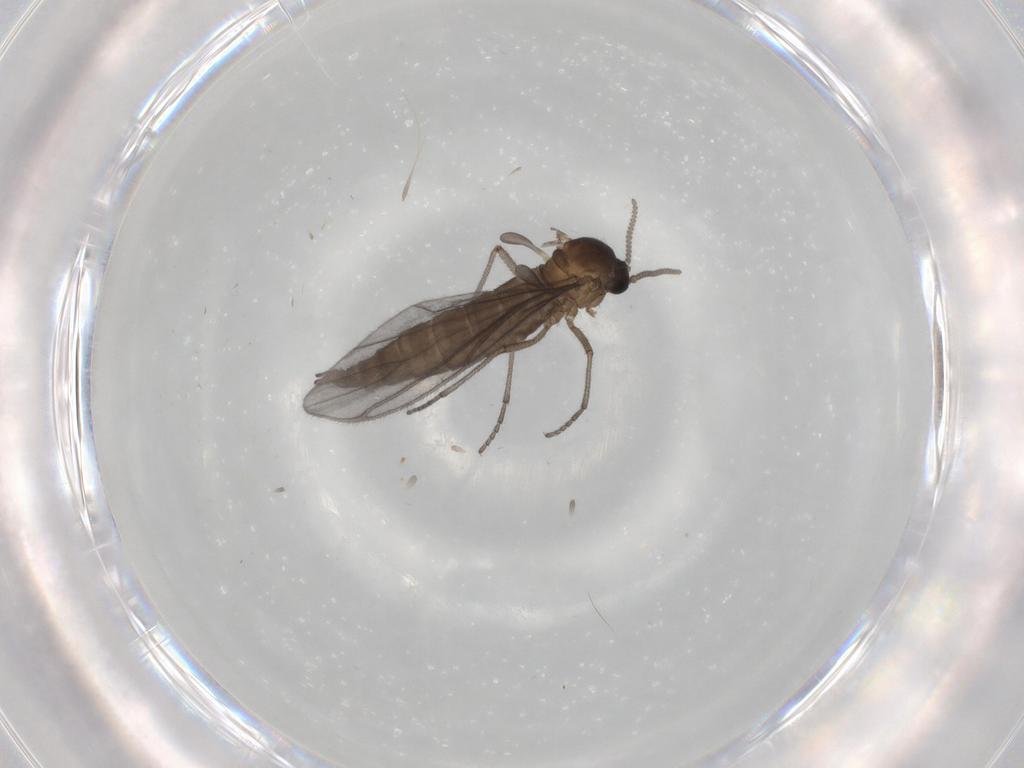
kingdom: Animalia
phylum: Arthropoda
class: Insecta
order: Diptera
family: Sciaridae
